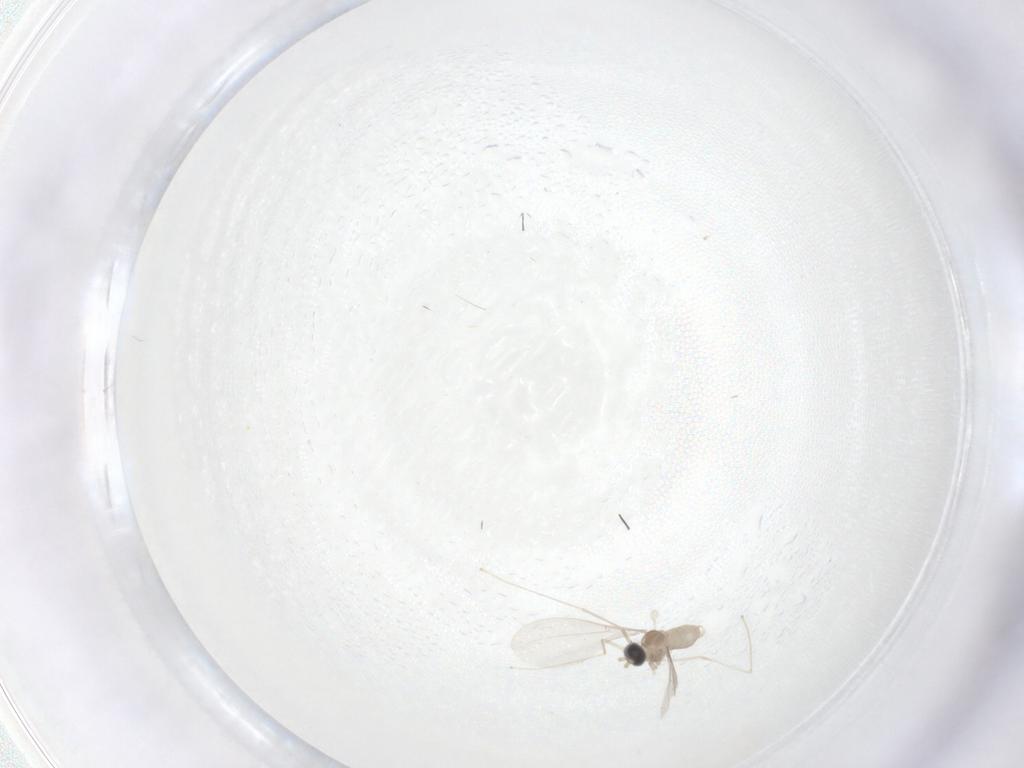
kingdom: Animalia
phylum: Arthropoda
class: Insecta
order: Diptera
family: Cecidomyiidae
